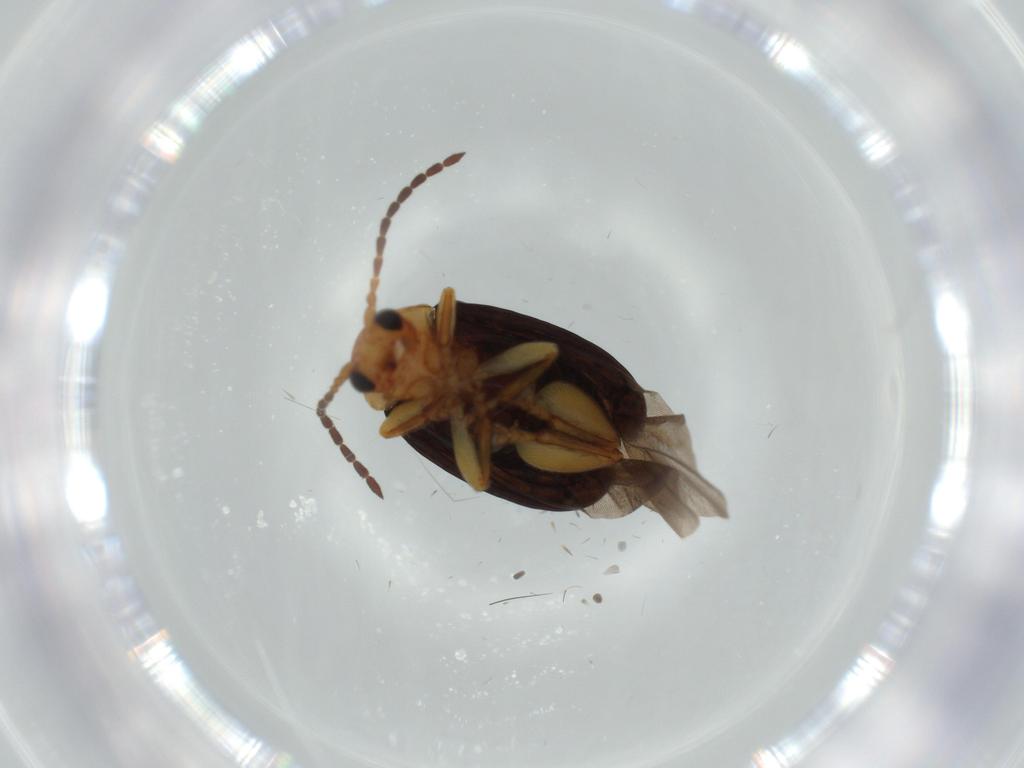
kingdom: Animalia
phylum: Arthropoda
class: Insecta
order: Coleoptera
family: Chrysomelidae
